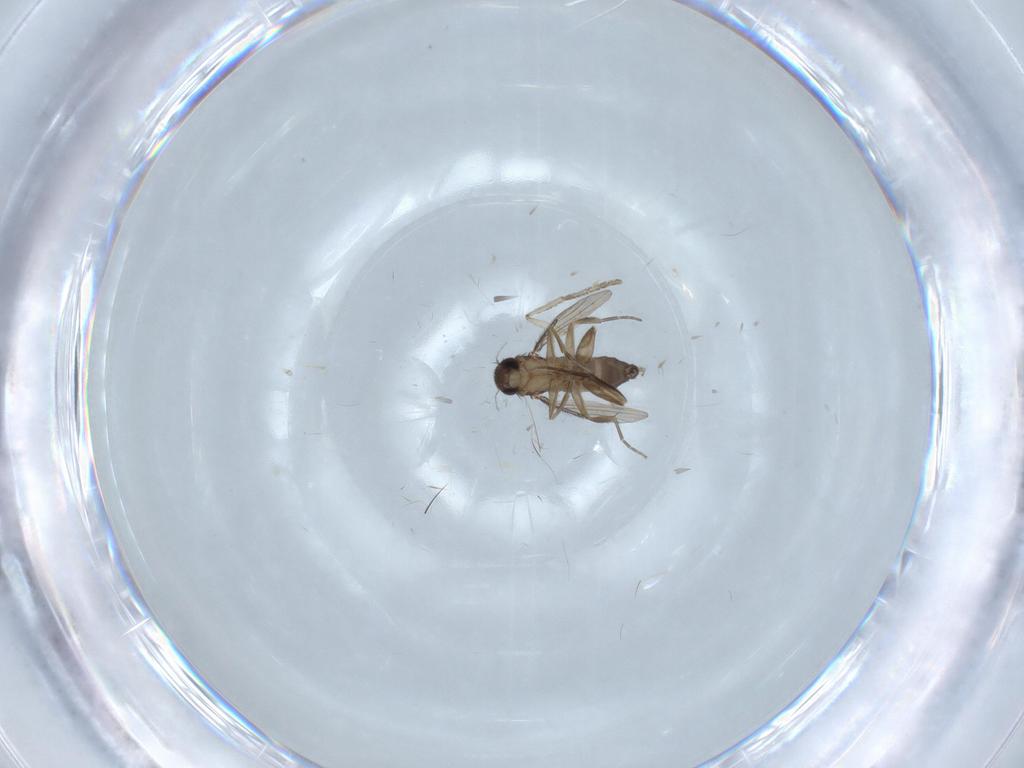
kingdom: Animalia
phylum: Arthropoda
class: Insecta
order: Diptera
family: Phoridae
